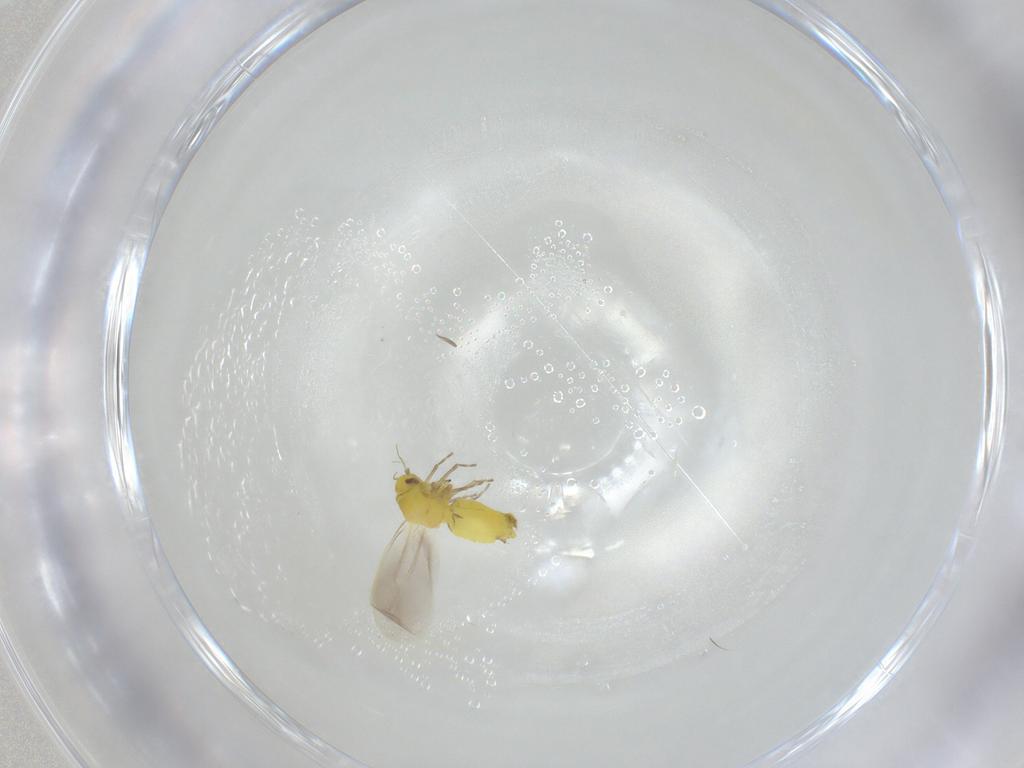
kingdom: Animalia
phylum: Arthropoda
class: Insecta
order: Hemiptera
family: Aleyrodidae
